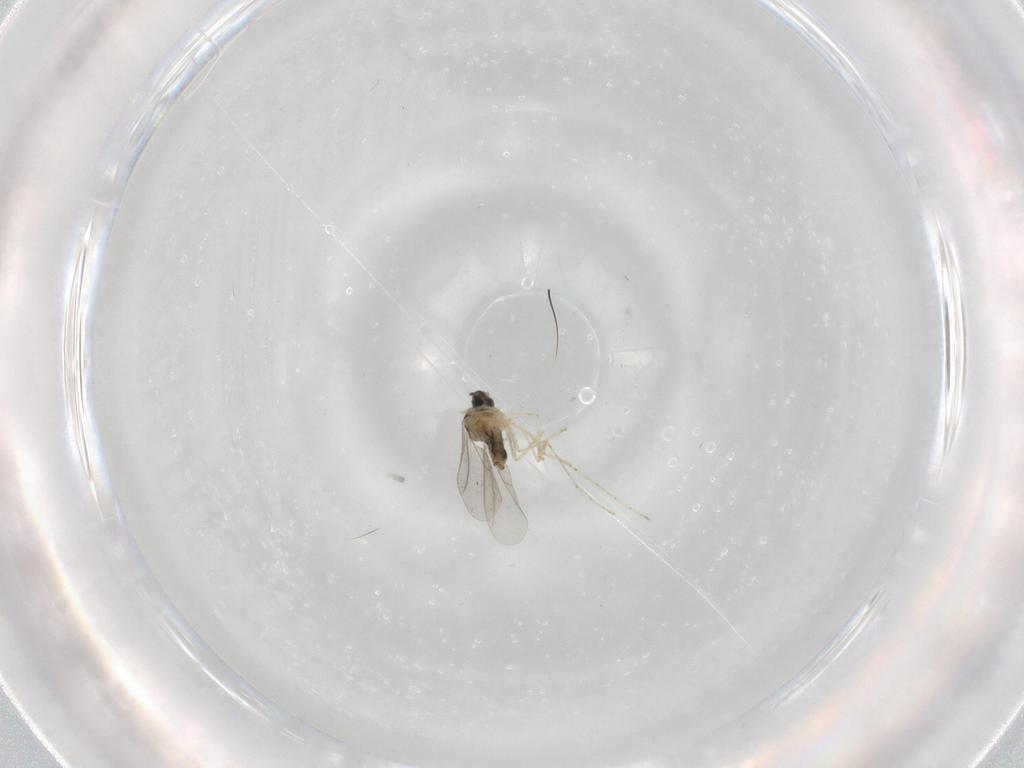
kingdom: Animalia
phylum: Arthropoda
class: Insecta
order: Diptera
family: Cecidomyiidae
